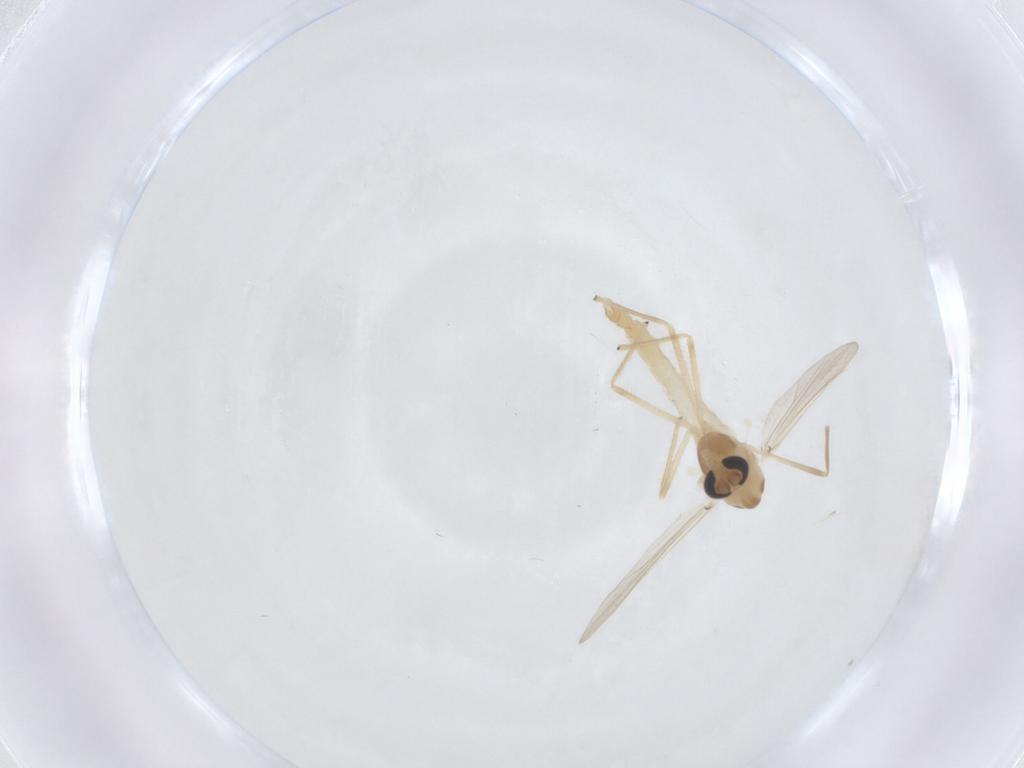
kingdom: Animalia
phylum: Arthropoda
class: Insecta
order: Diptera
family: Chironomidae
